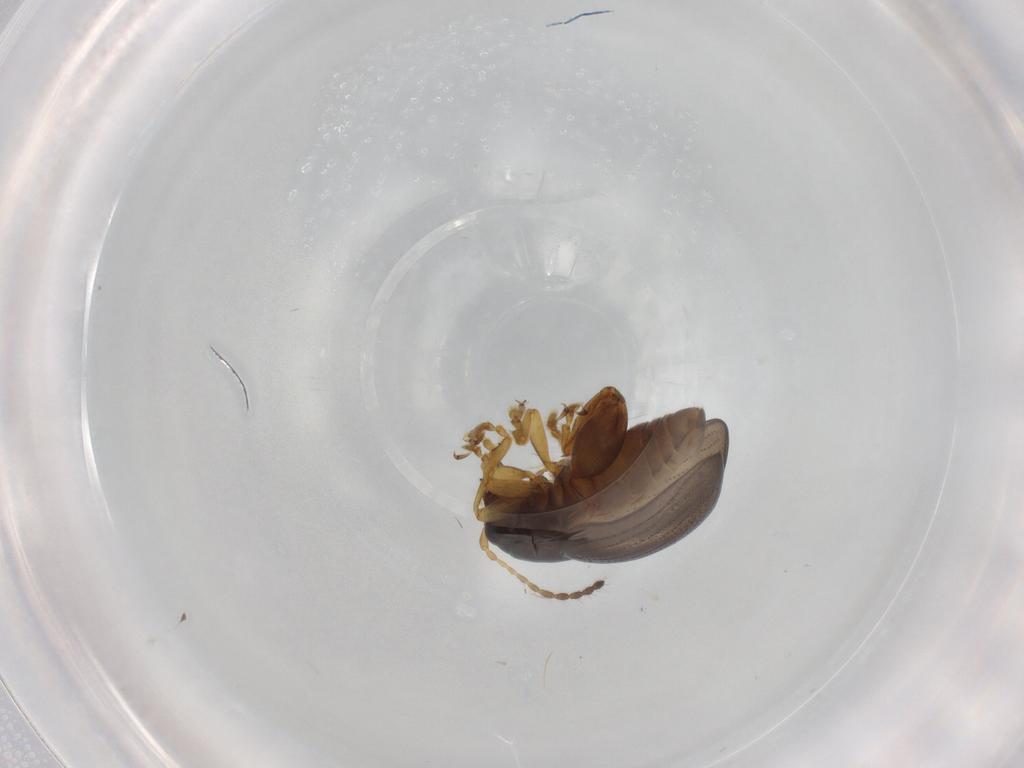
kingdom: Animalia
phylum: Arthropoda
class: Insecta
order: Coleoptera
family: Chrysomelidae
